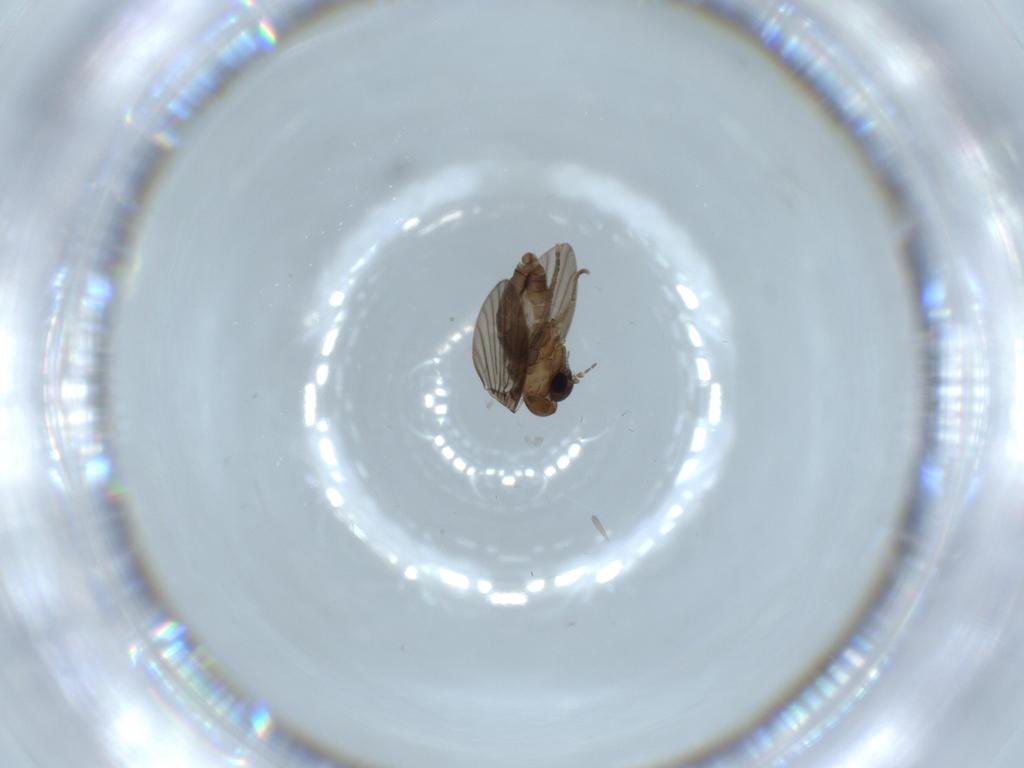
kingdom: Animalia
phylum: Arthropoda
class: Insecta
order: Diptera
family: Psychodidae
